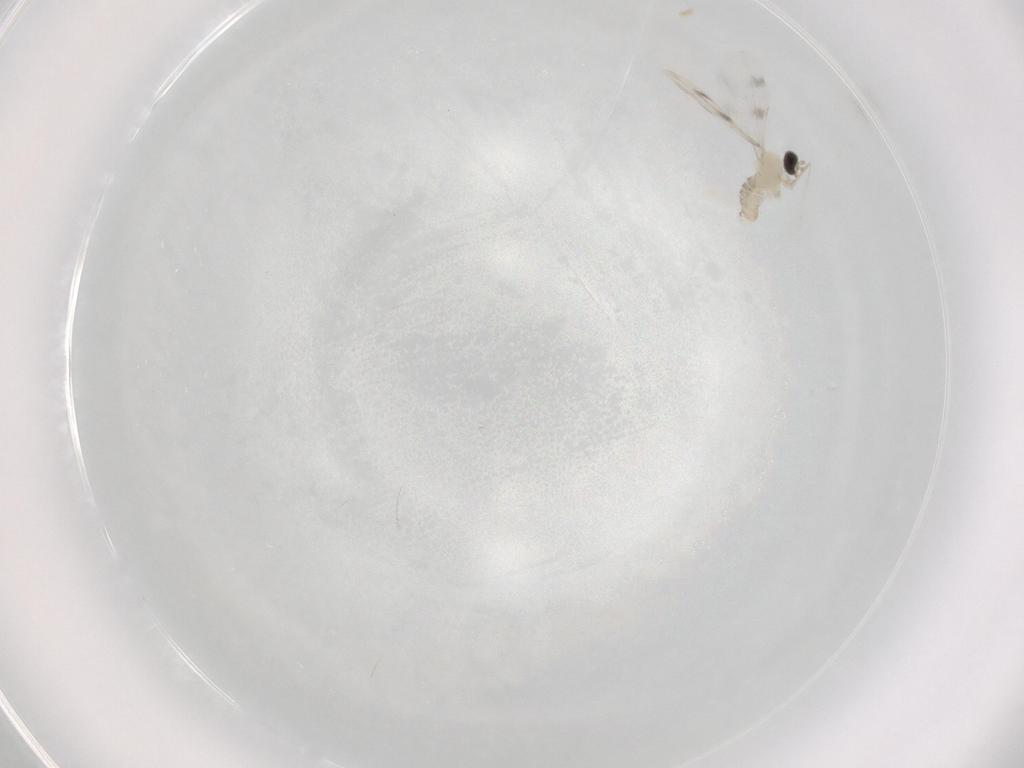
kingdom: Animalia
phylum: Arthropoda
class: Insecta
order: Diptera
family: Cecidomyiidae
